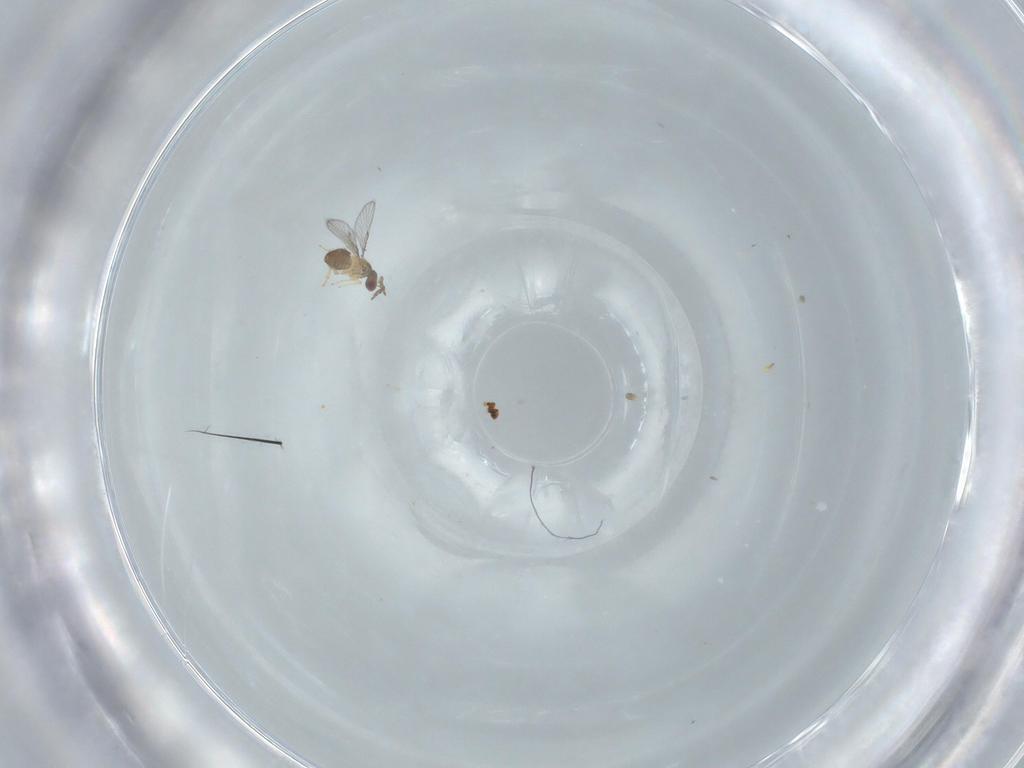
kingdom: Animalia
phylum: Arthropoda
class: Insecta
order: Hymenoptera
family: Trichogrammatidae
